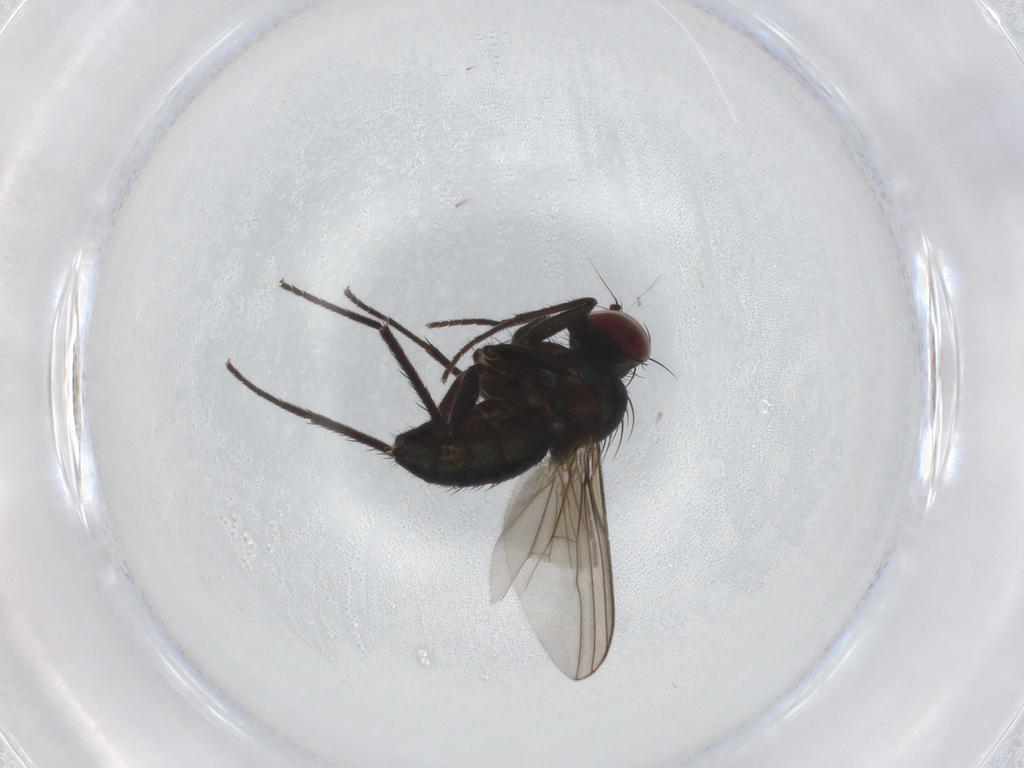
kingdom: Animalia
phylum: Arthropoda
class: Insecta
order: Diptera
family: Dolichopodidae
